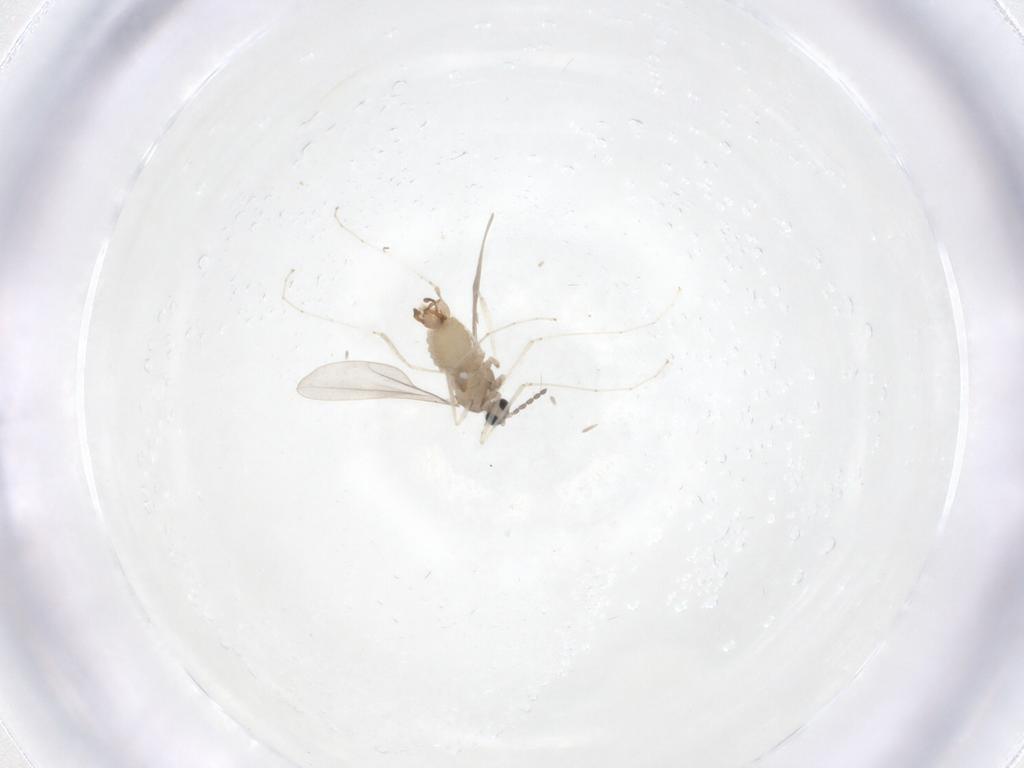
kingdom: Animalia
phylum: Arthropoda
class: Insecta
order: Diptera
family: Cecidomyiidae
